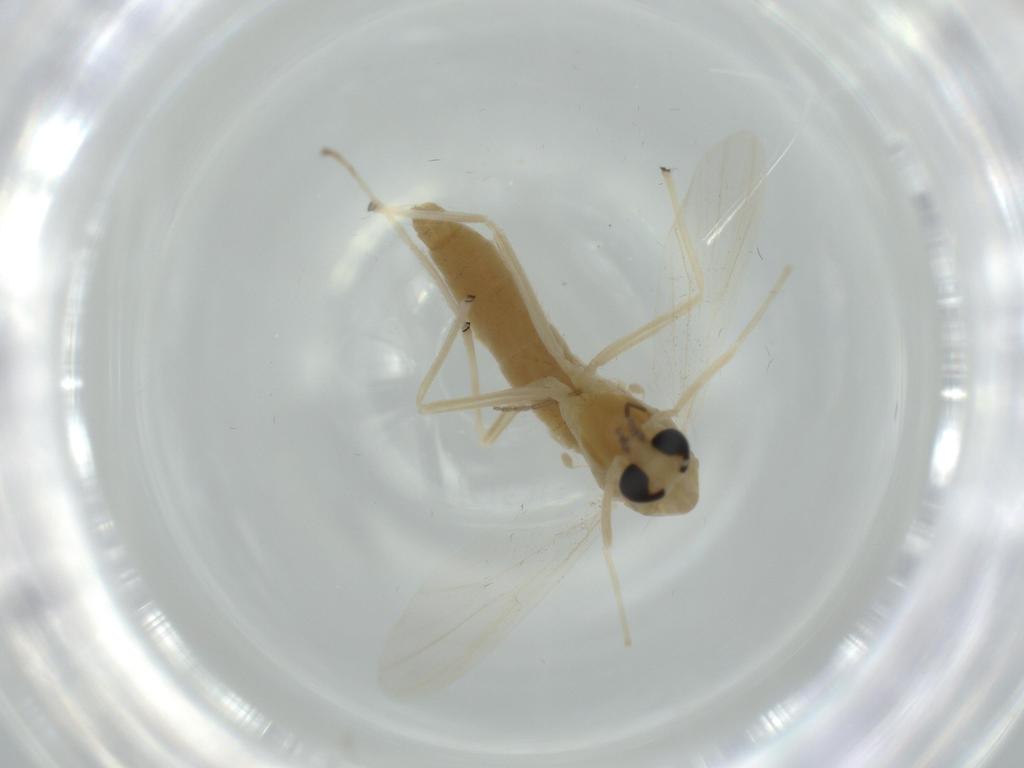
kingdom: Animalia
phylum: Arthropoda
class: Insecta
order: Diptera
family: Chironomidae
